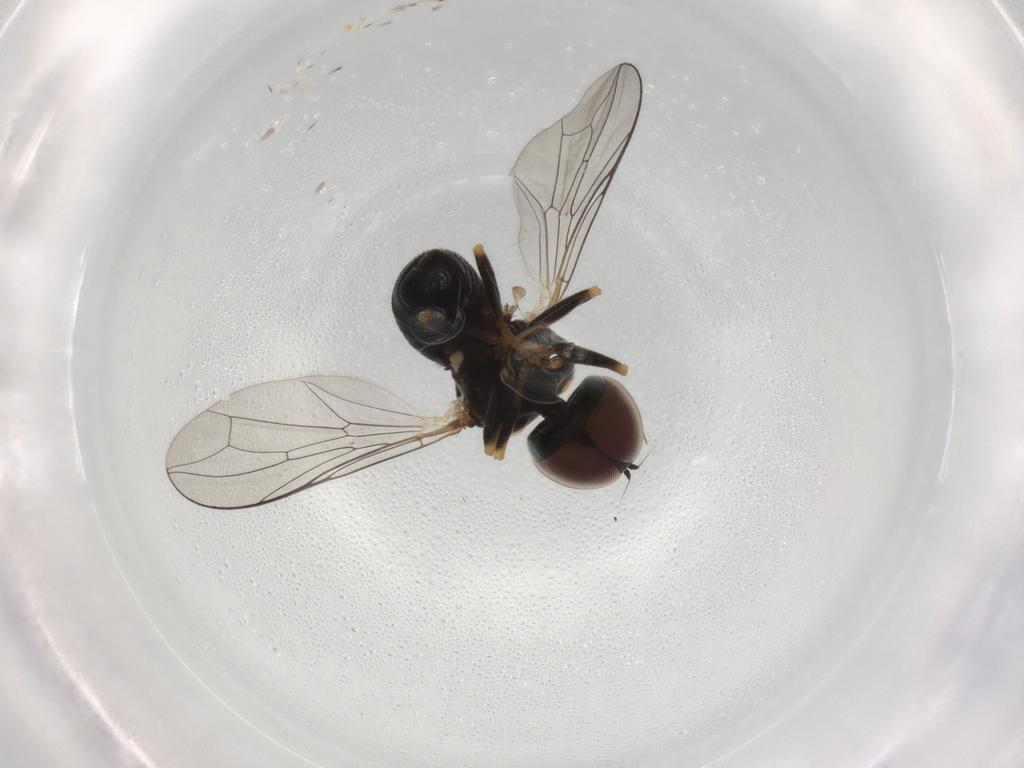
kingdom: Animalia
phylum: Arthropoda
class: Insecta
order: Diptera
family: Pipunculidae
